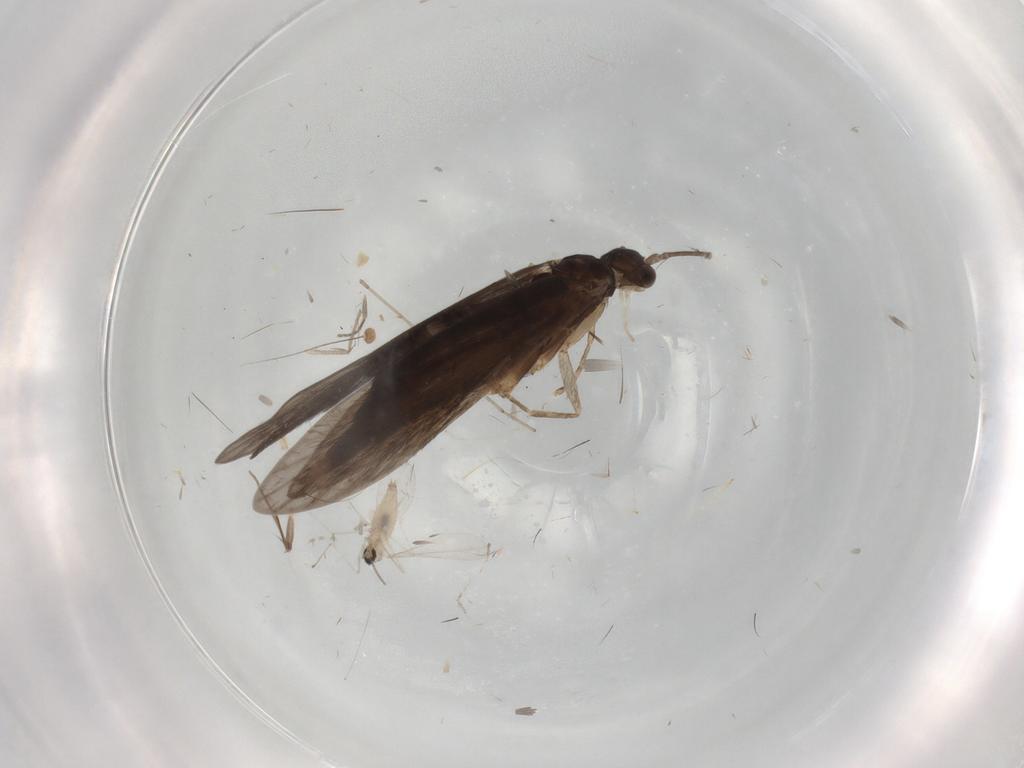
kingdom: Animalia
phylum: Arthropoda
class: Insecta
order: Trichoptera
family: Xiphocentronidae
